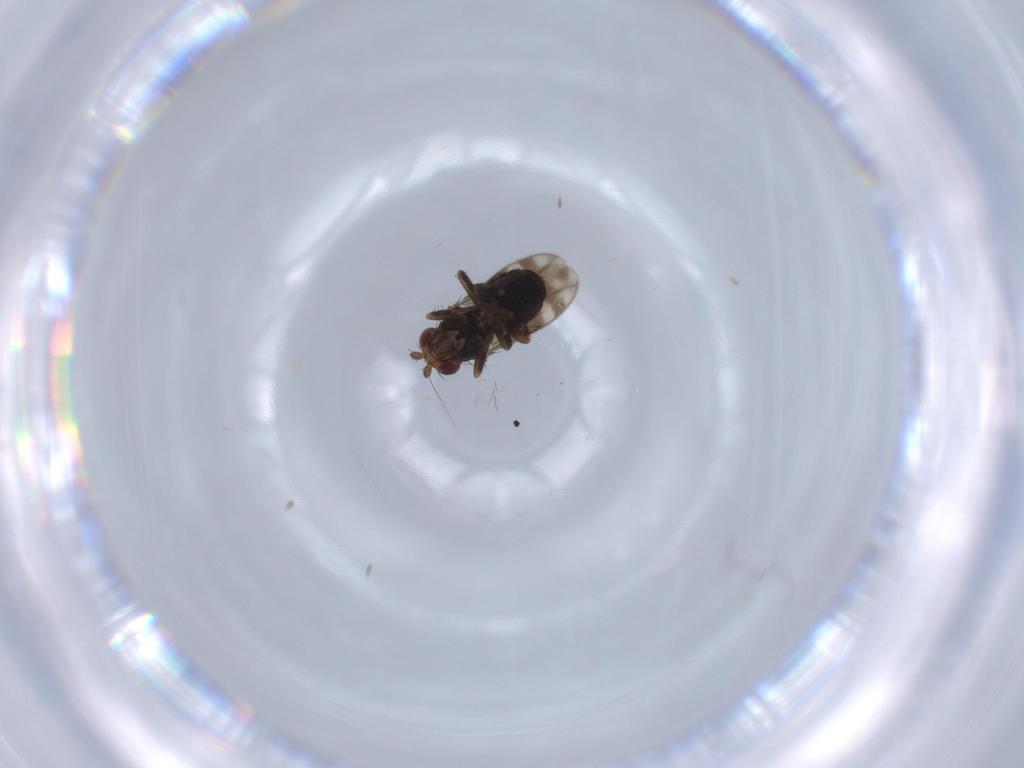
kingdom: Animalia
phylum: Arthropoda
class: Insecta
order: Diptera
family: Sphaeroceridae
